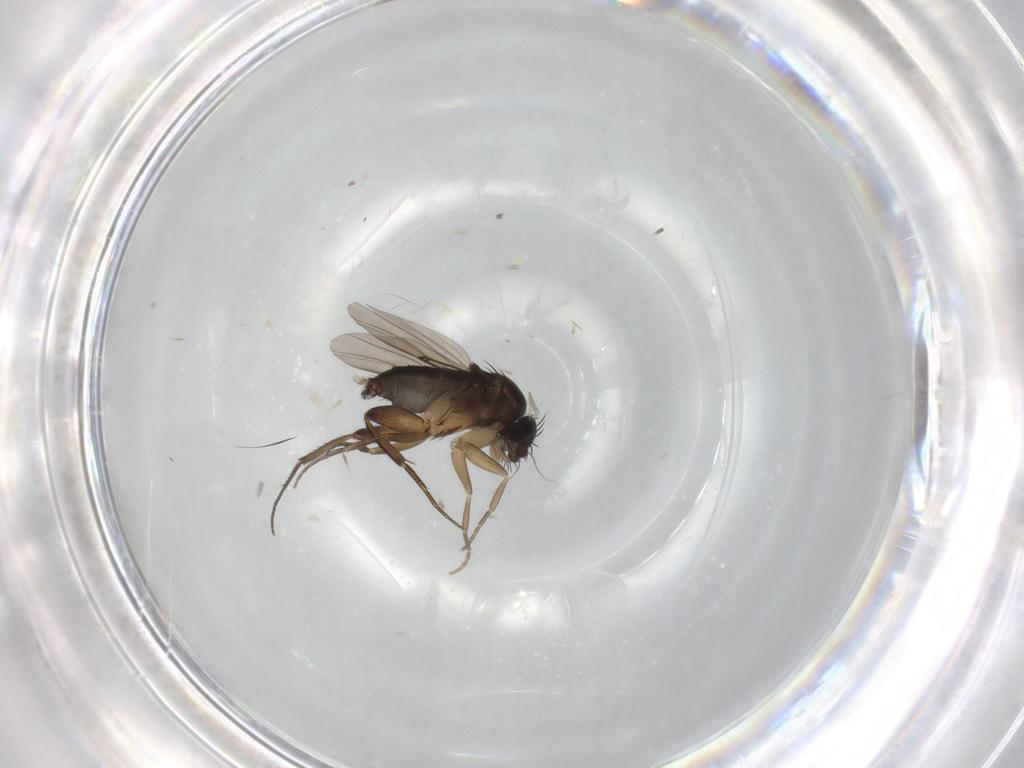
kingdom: Animalia
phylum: Arthropoda
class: Insecta
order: Diptera
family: Phoridae
